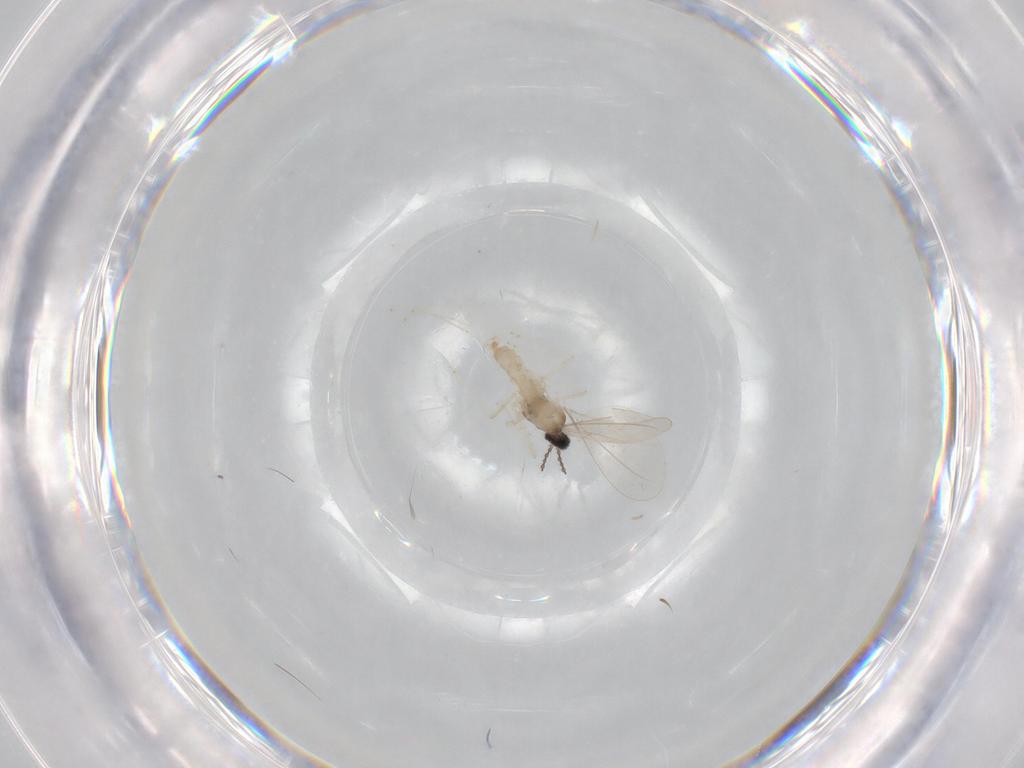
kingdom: Animalia
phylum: Arthropoda
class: Insecta
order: Diptera
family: Cecidomyiidae
